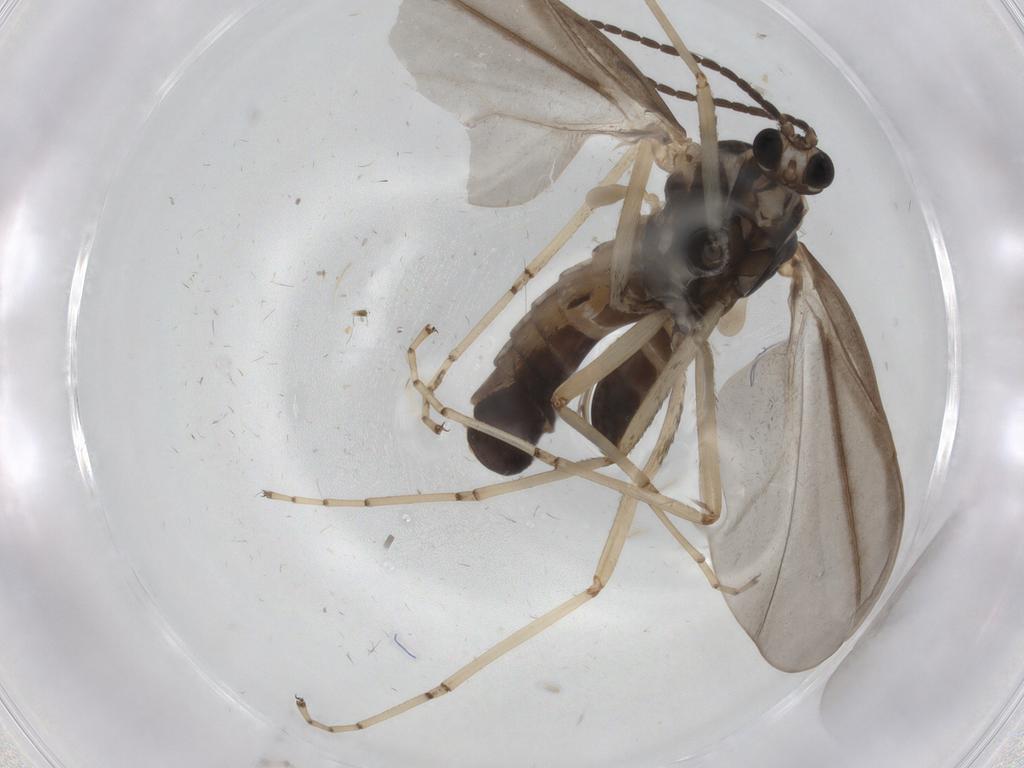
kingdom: Animalia
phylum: Arthropoda
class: Insecta
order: Diptera
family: Cecidomyiidae
